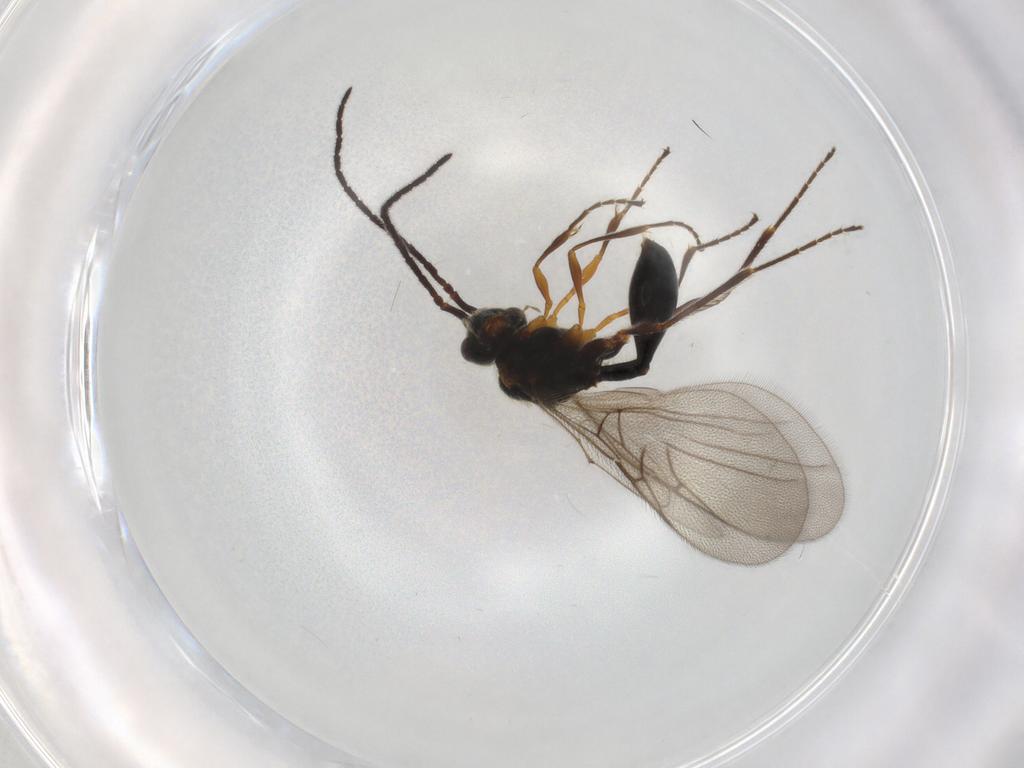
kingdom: Animalia
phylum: Arthropoda
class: Insecta
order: Hymenoptera
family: Diapriidae
